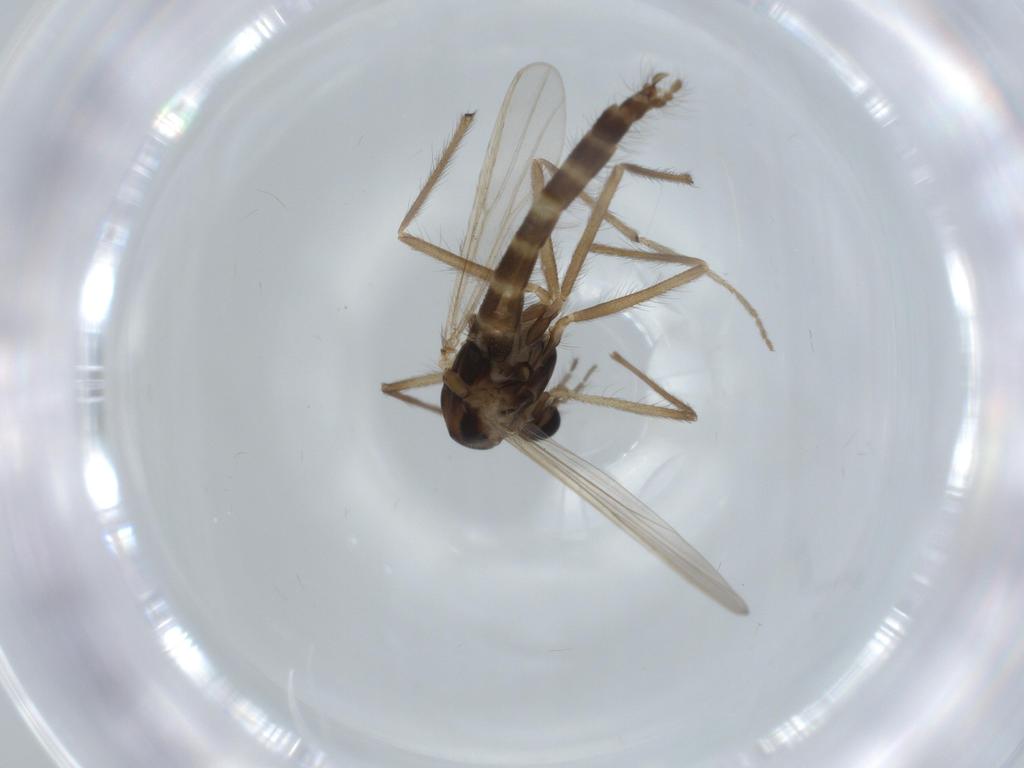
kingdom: Animalia
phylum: Arthropoda
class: Insecta
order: Diptera
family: Chironomidae
